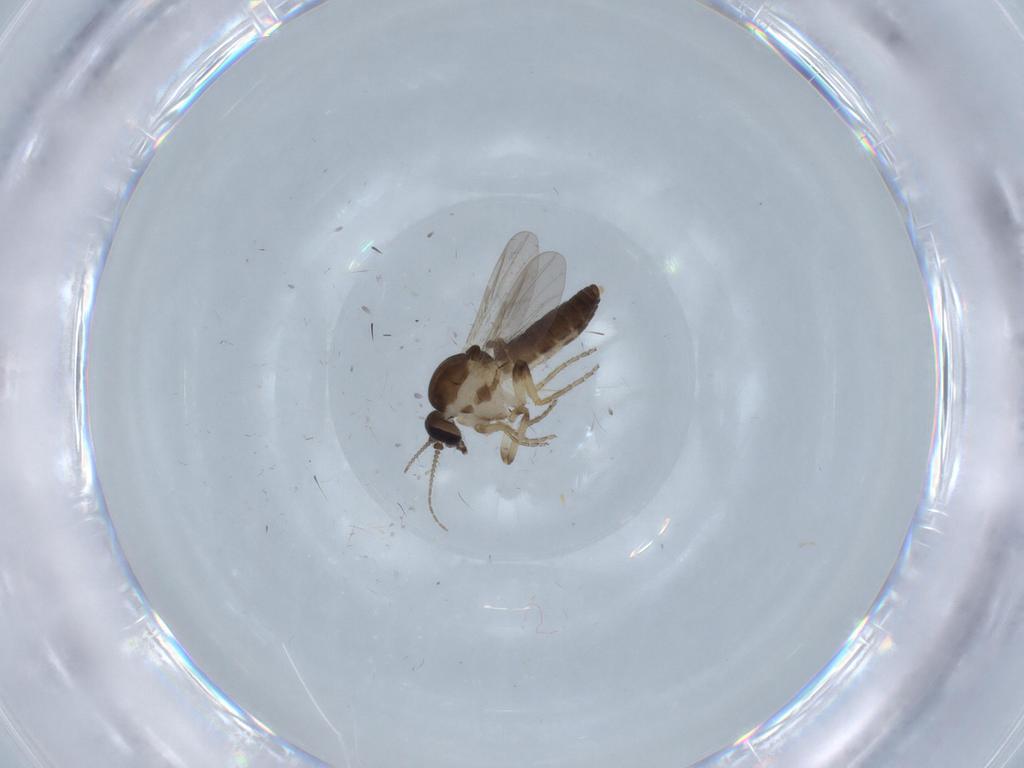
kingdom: Animalia
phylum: Arthropoda
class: Insecta
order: Diptera
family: Ceratopogonidae
